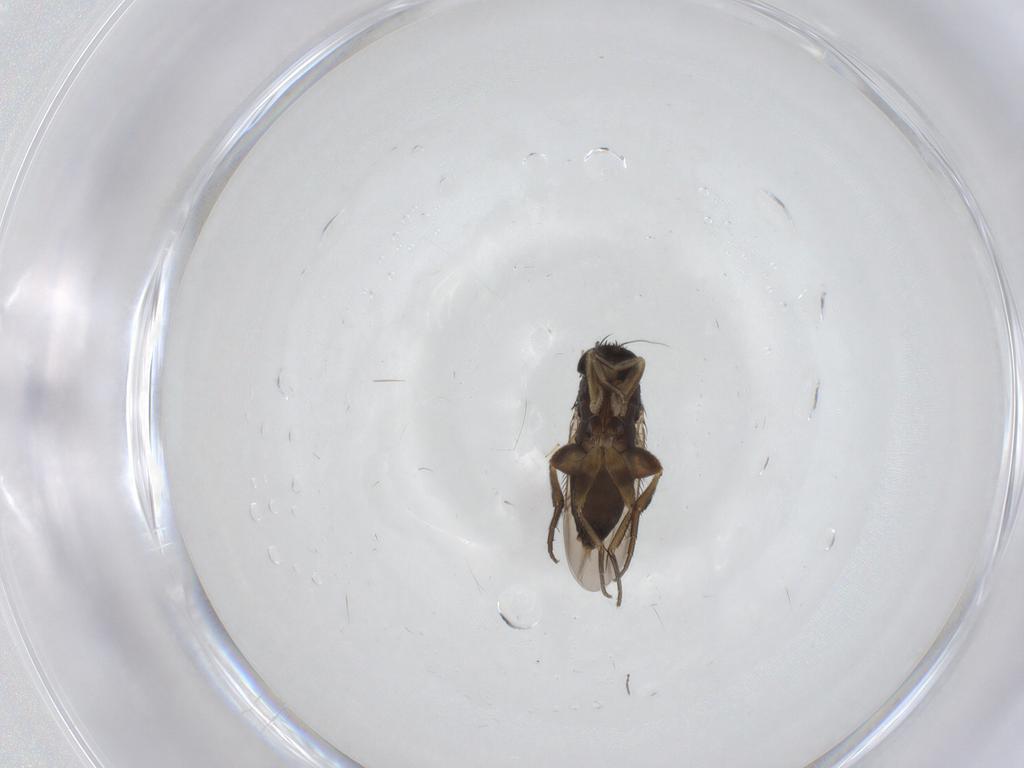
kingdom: Animalia
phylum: Arthropoda
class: Insecta
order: Diptera
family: Phoridae
